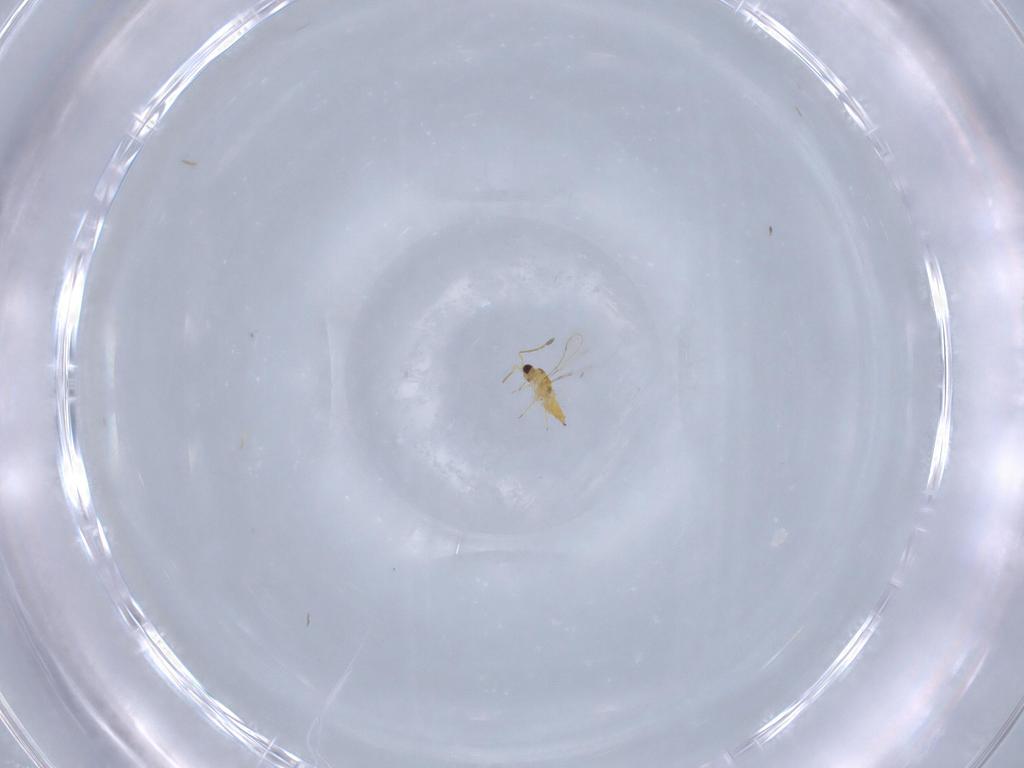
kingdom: Animalia
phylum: Arthropoda
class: Insecta
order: Hymenoptera
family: Mymaridae
